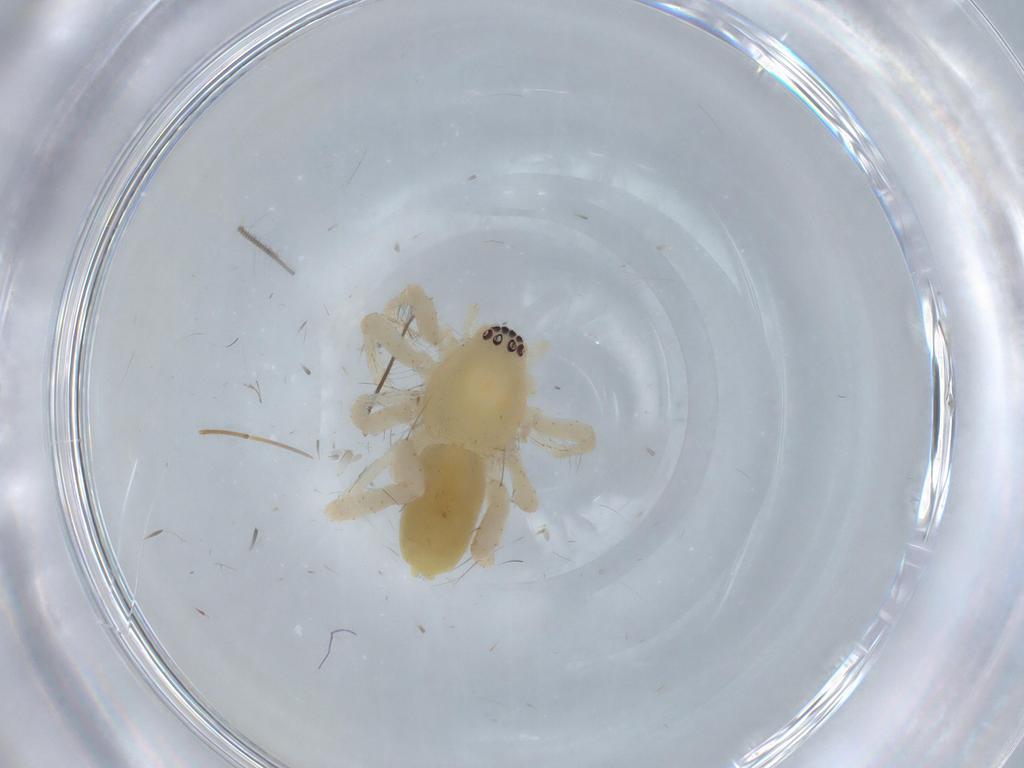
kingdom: Animalia
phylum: Arthropoda
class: Arachnida
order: Araneae
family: Anyphaenidae
